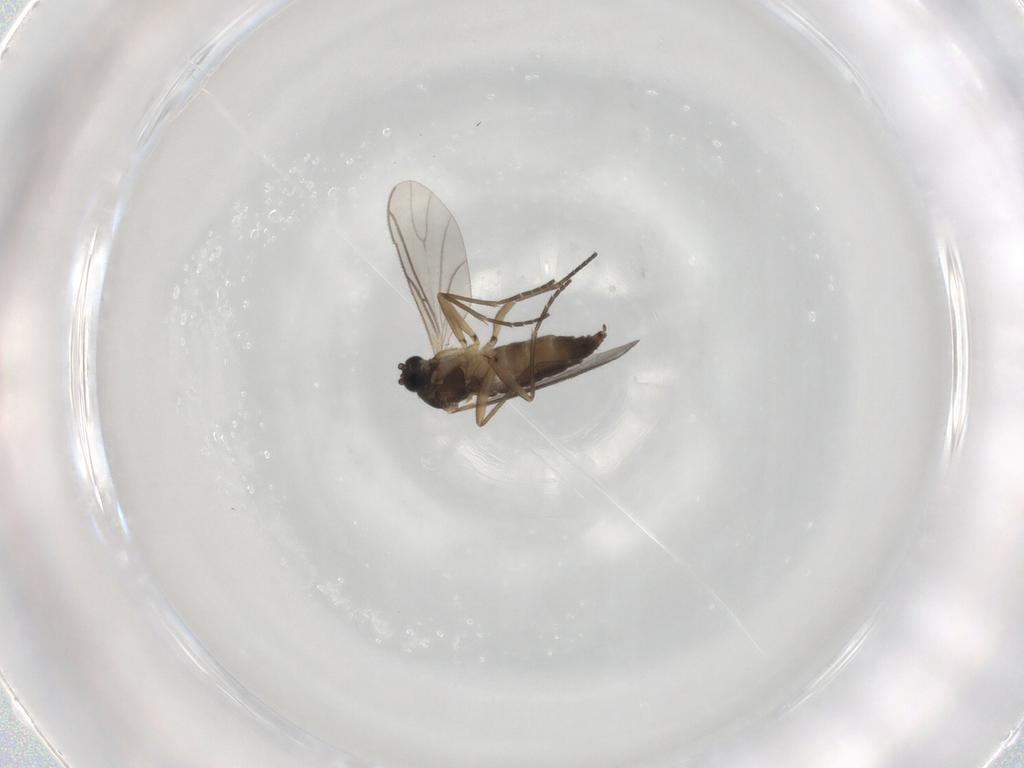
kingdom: Animalia
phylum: Arthropoda
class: Insecta
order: Diptera
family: Sciaridae
